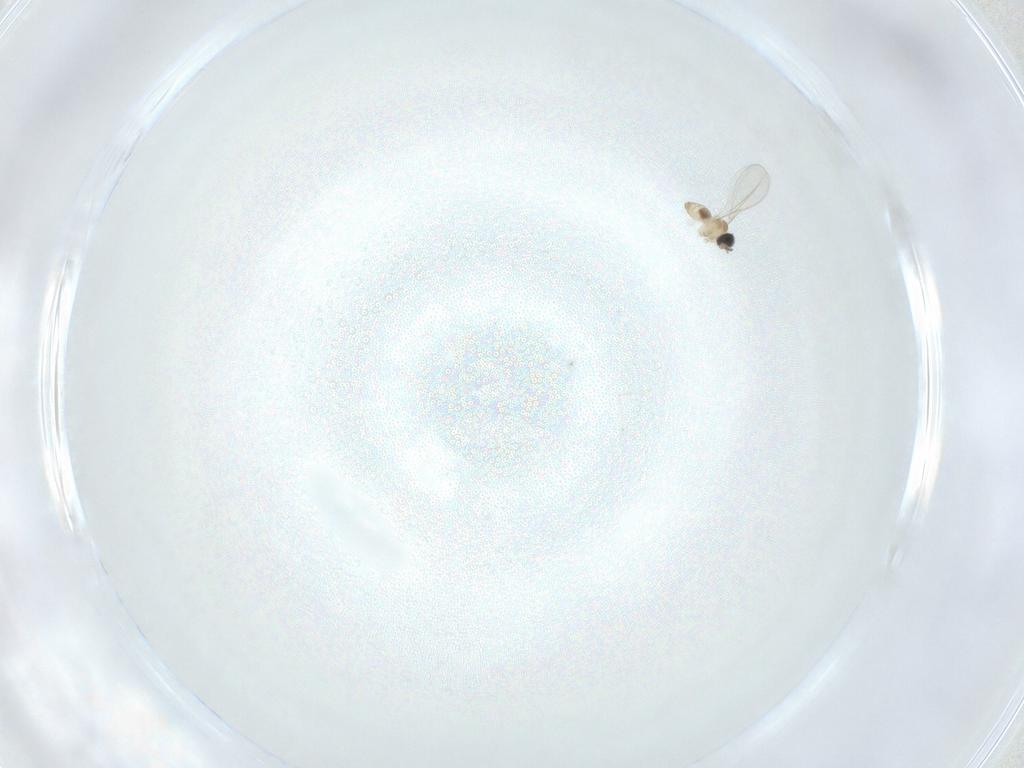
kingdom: Animalia
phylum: Arthropoda
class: Insecta
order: Diptera
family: Cecidomyiidae
